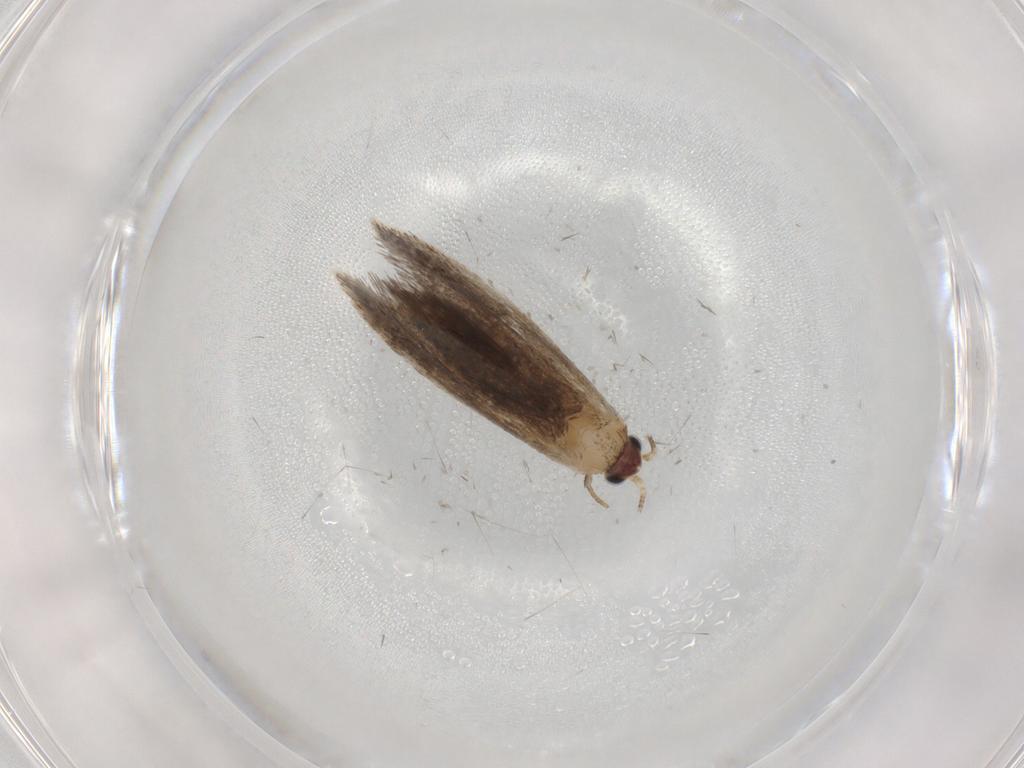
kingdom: Animalia
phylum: Arthropoda
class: Insecta
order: Lepidoptera
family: Nepticulidae
